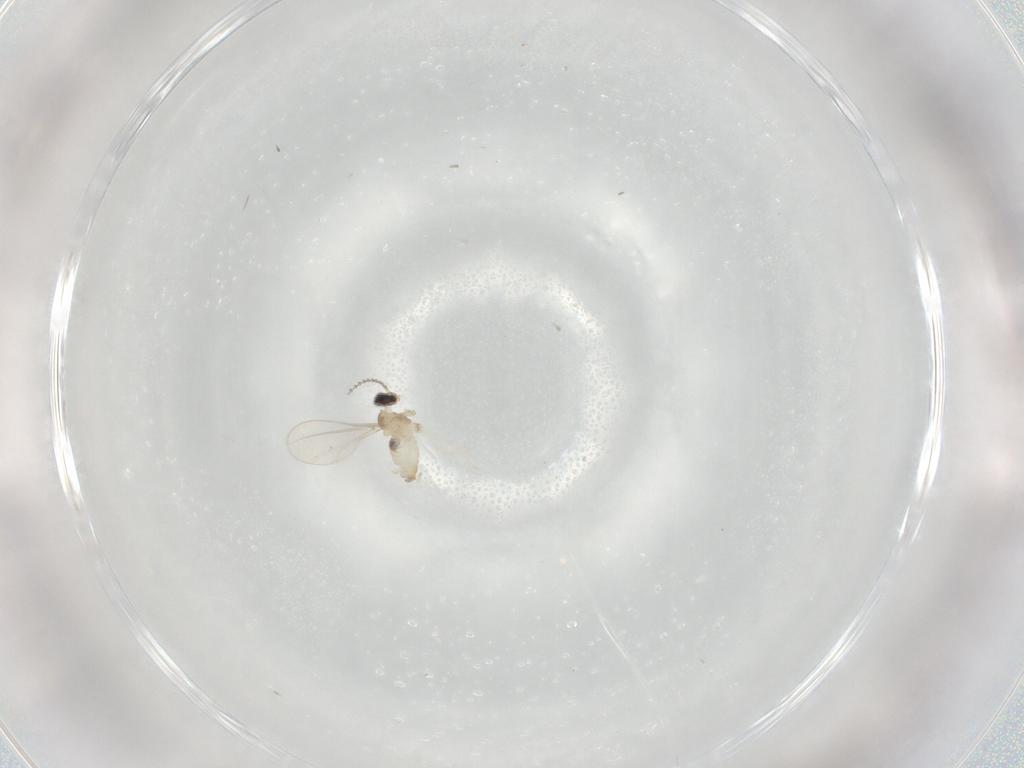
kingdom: Animalia
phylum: Arthropoda
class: Insecta
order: Diptera
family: Cecidomyiidae
